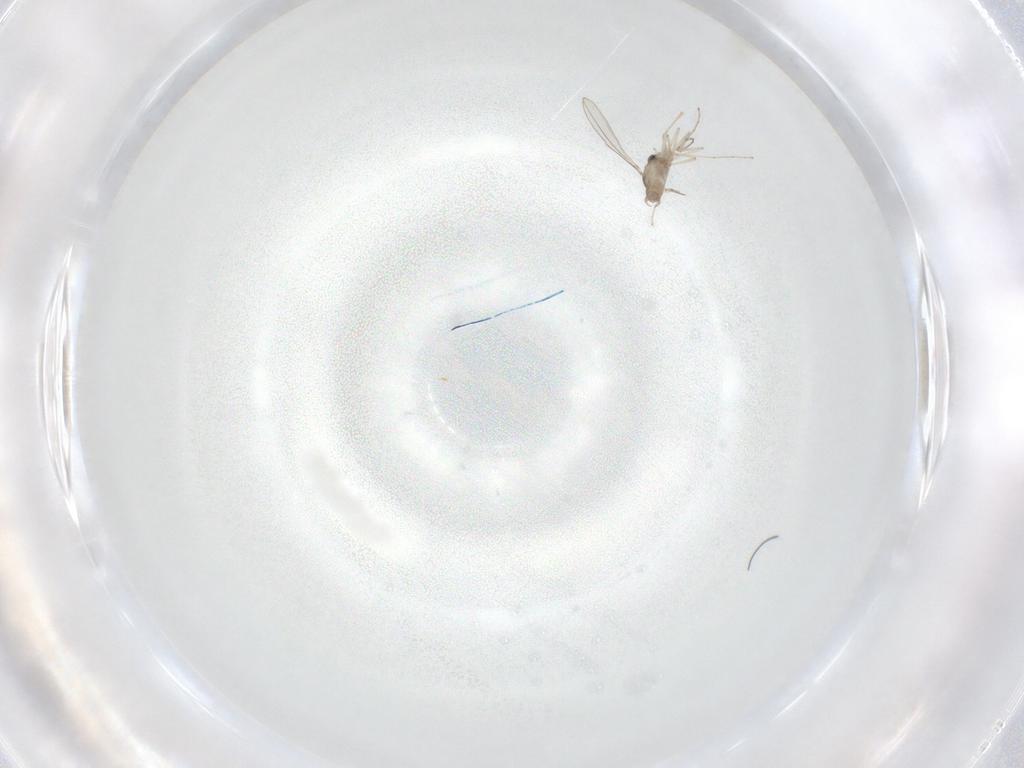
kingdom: Animalia
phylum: Arthropoda
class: Insecta
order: Diptera
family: Cecidomyiidae
